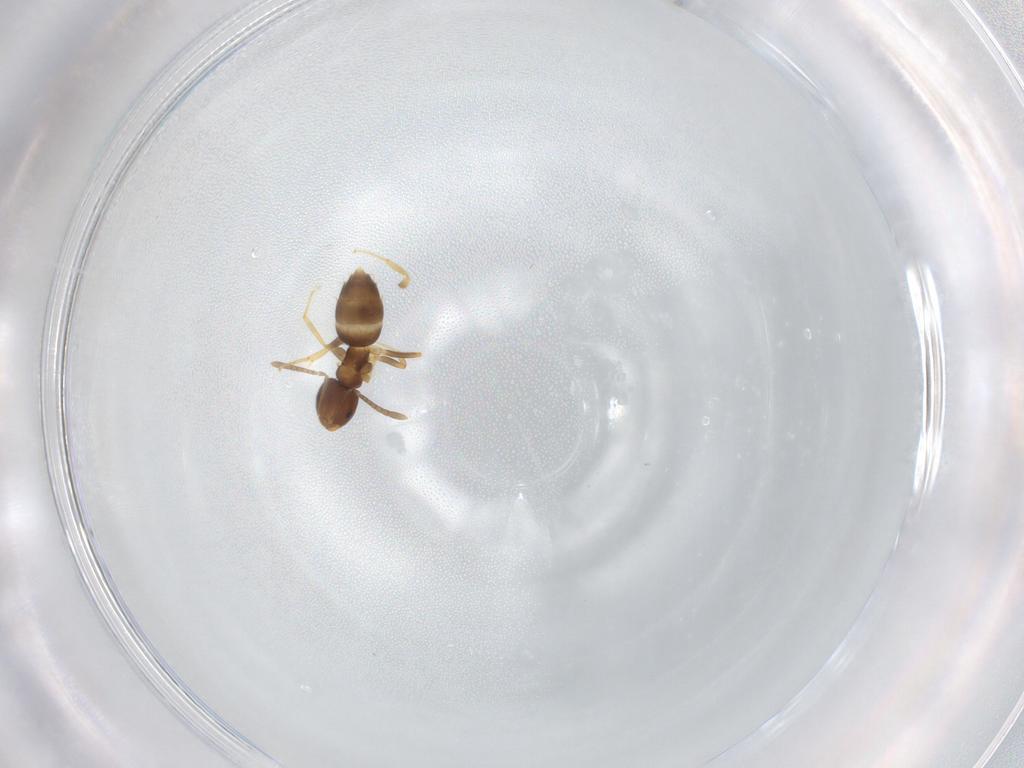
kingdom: Animalia
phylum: Arthropoda
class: Insecta
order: Hymenoptera
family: Formicidae
